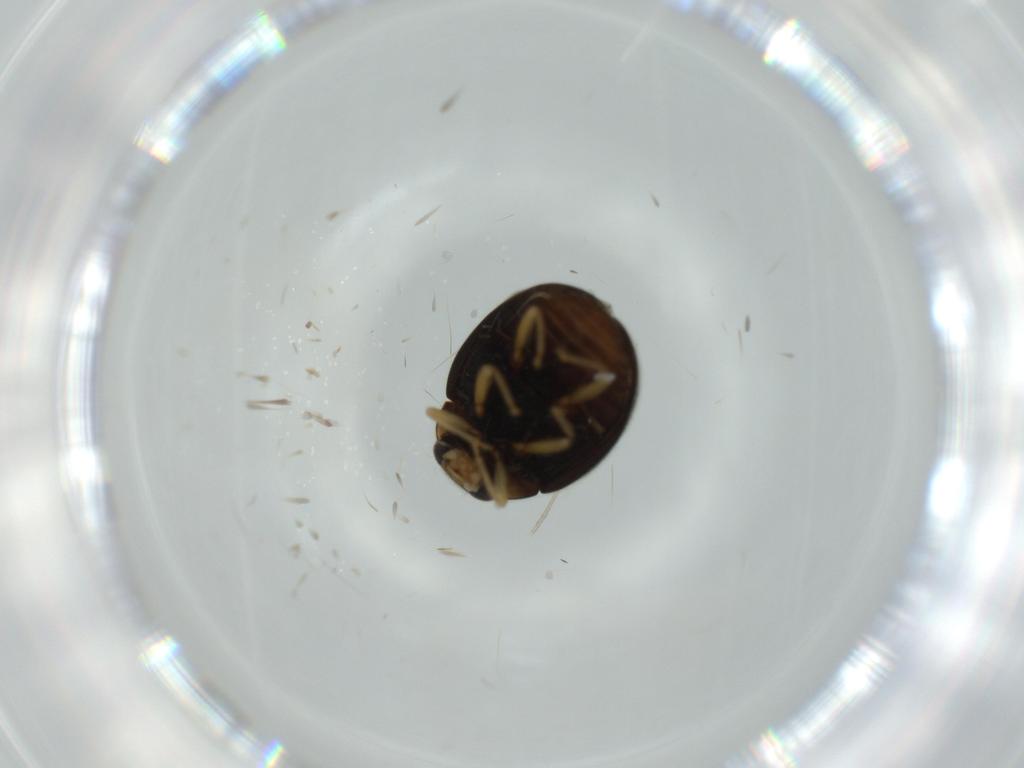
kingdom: Animalia
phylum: Arthropoda
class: Insecta
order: Coleoptera
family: Coccinellidae
